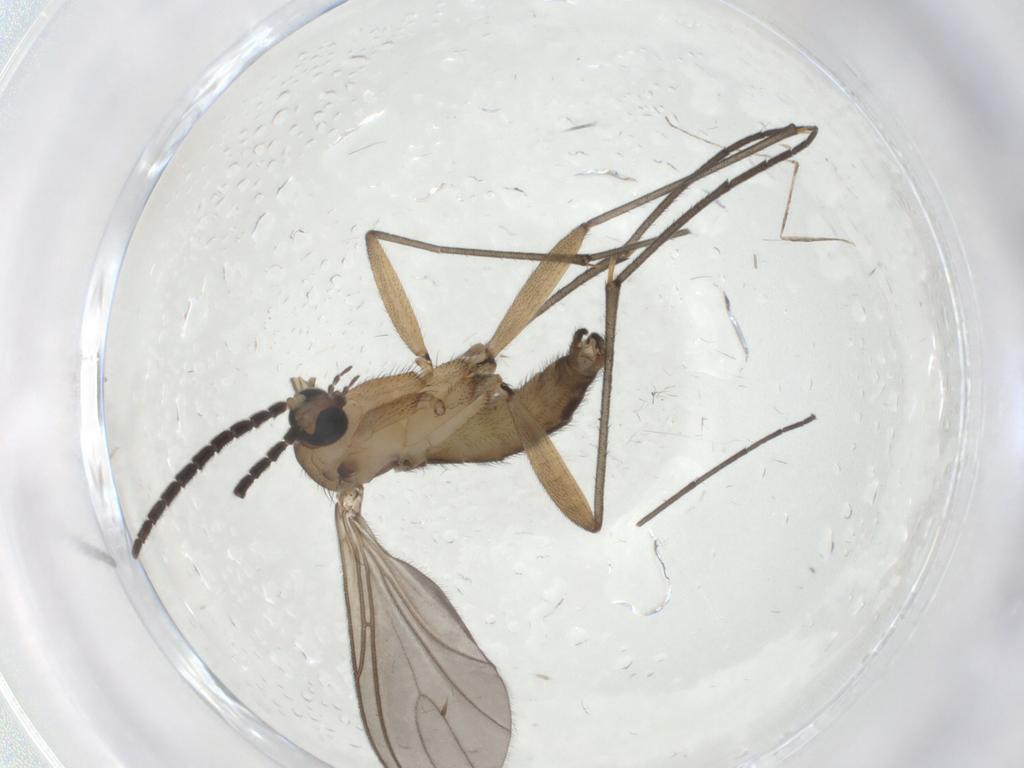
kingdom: Animalia
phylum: Arthropoda
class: Insecta
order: Diptera
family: Sciaridae
